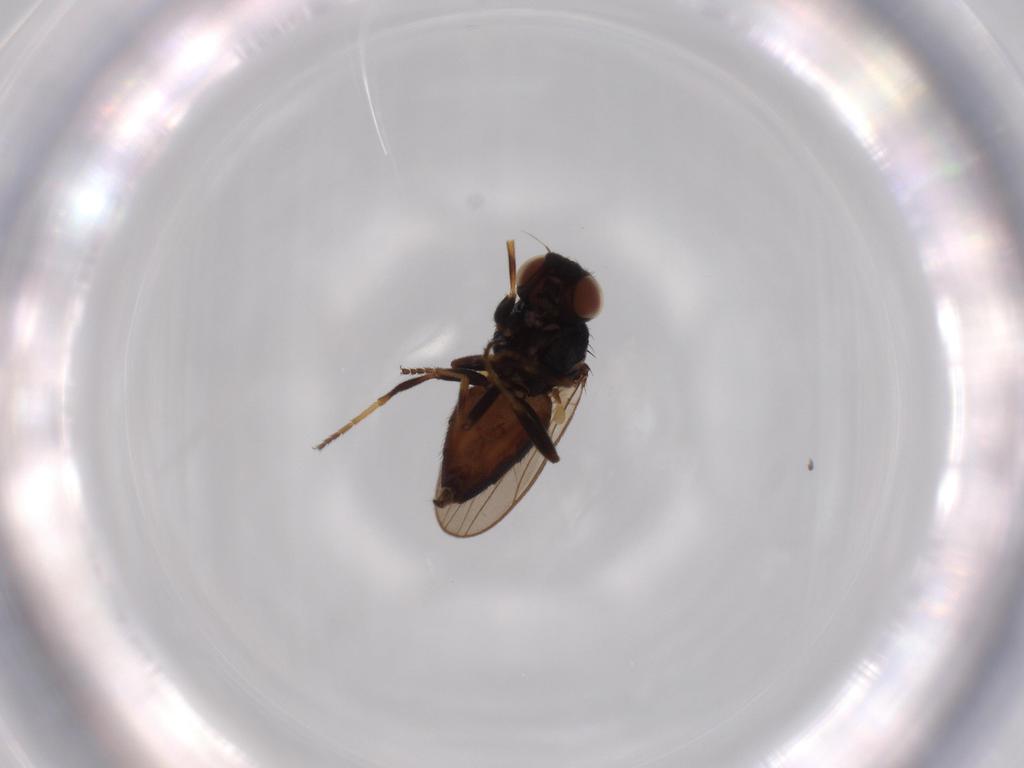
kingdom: Animalia
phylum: Arthropoda
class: Insecta
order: Diptera
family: Chloropidae
